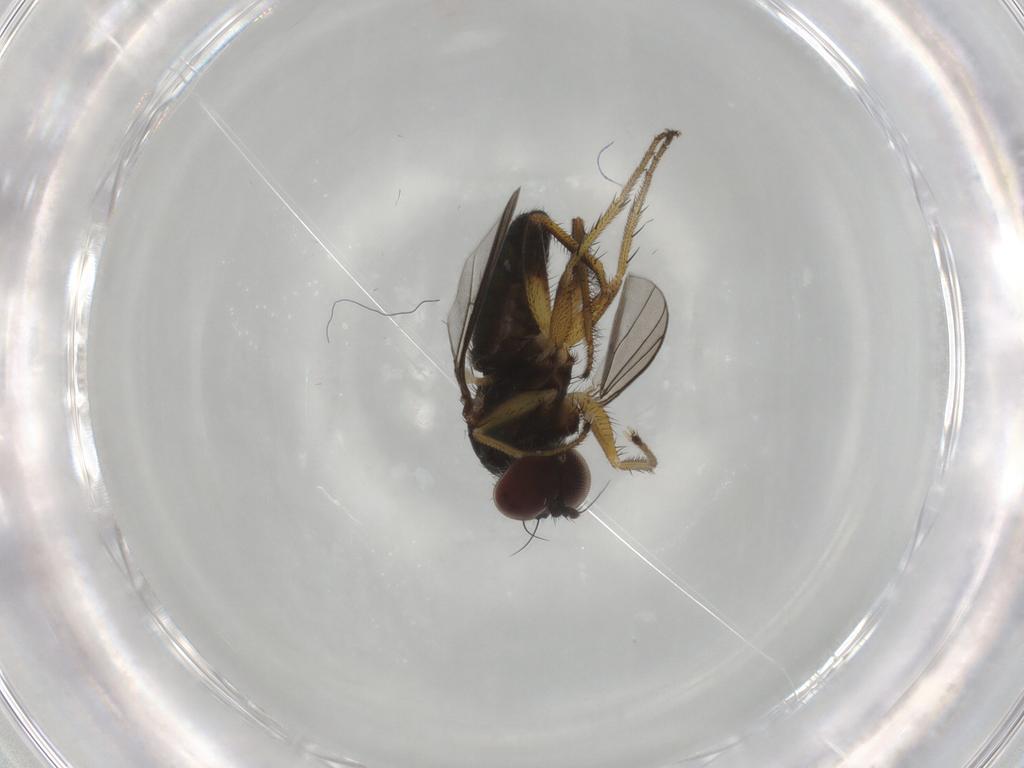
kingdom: Animalia
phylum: Arthropoda
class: Insecta
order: Diptera
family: Dolichopodidae
